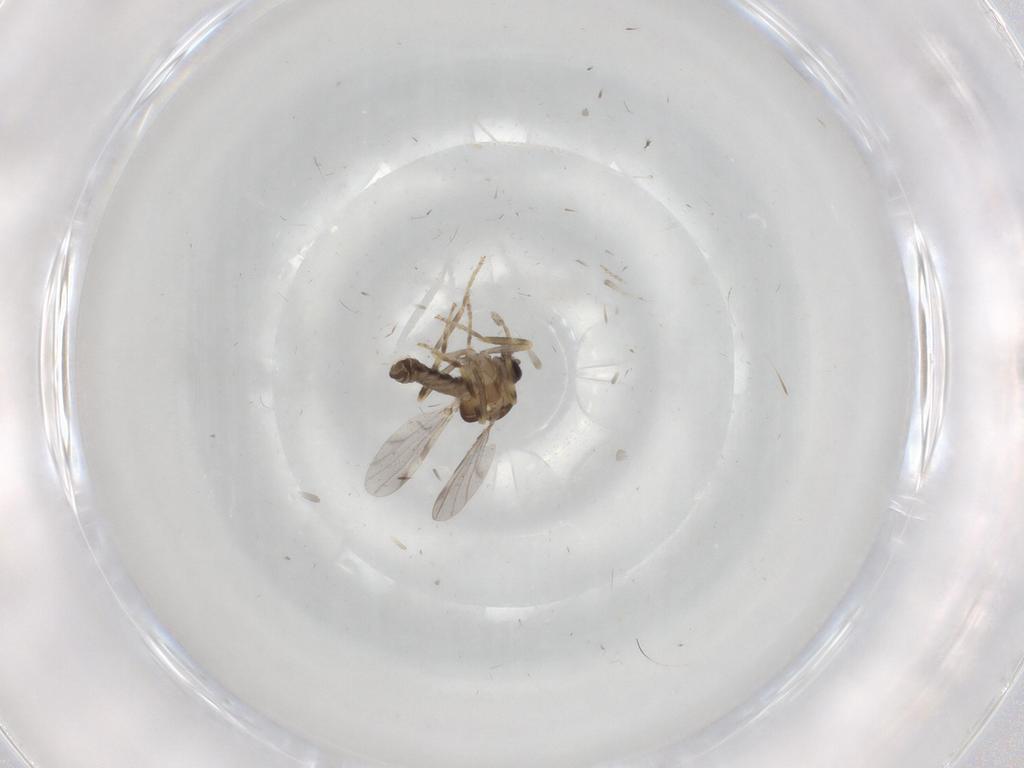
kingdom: Animalia
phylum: Arthropoda
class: Insecta
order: Diptera
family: Ceratopogonidae
